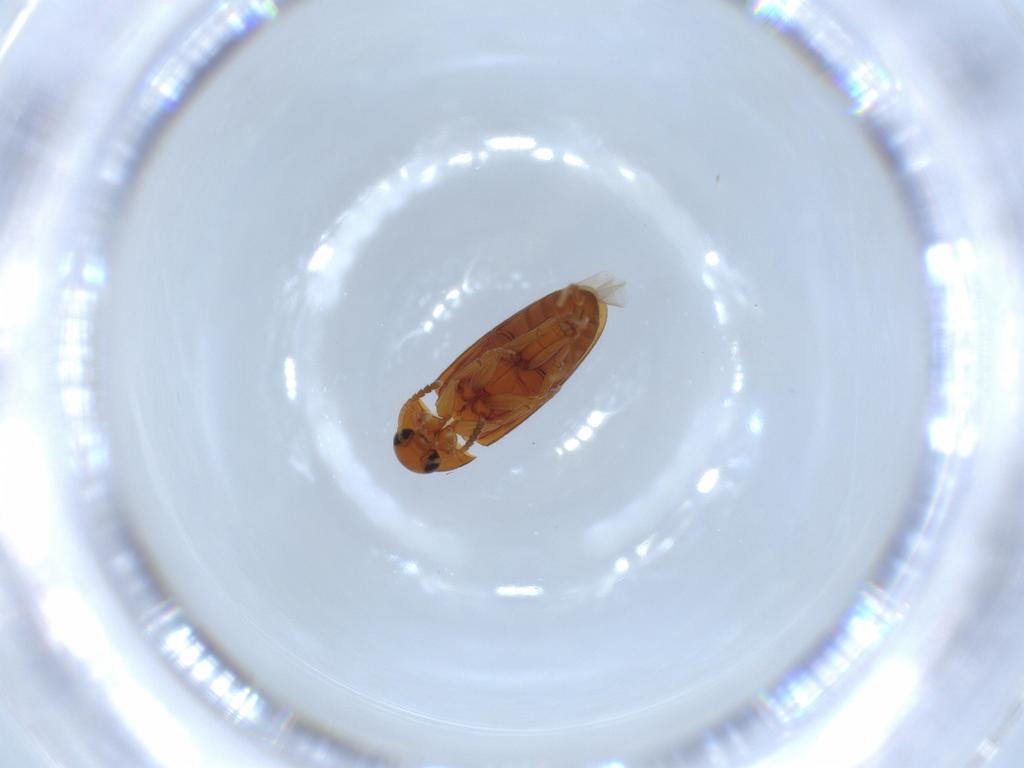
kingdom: Animalia
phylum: Arthropoda
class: Insecta
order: Coleoptera
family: Scraptiidae
